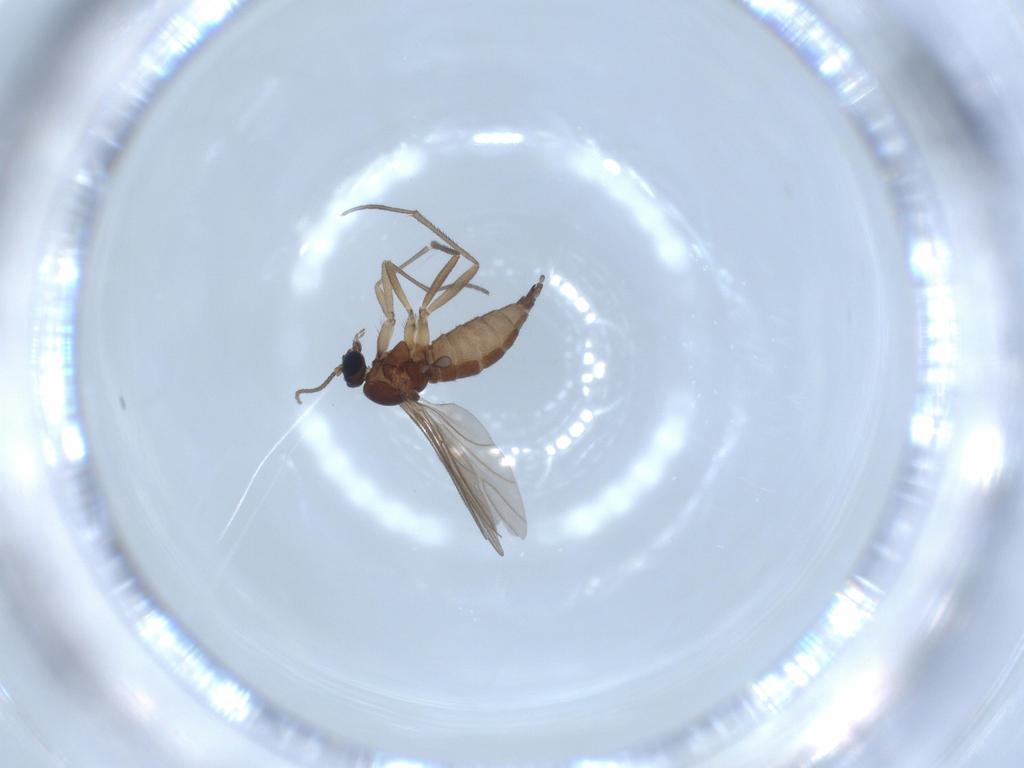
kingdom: Animalia
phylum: Arthropoda
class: Insecta
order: Diptera
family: Sciaridae
